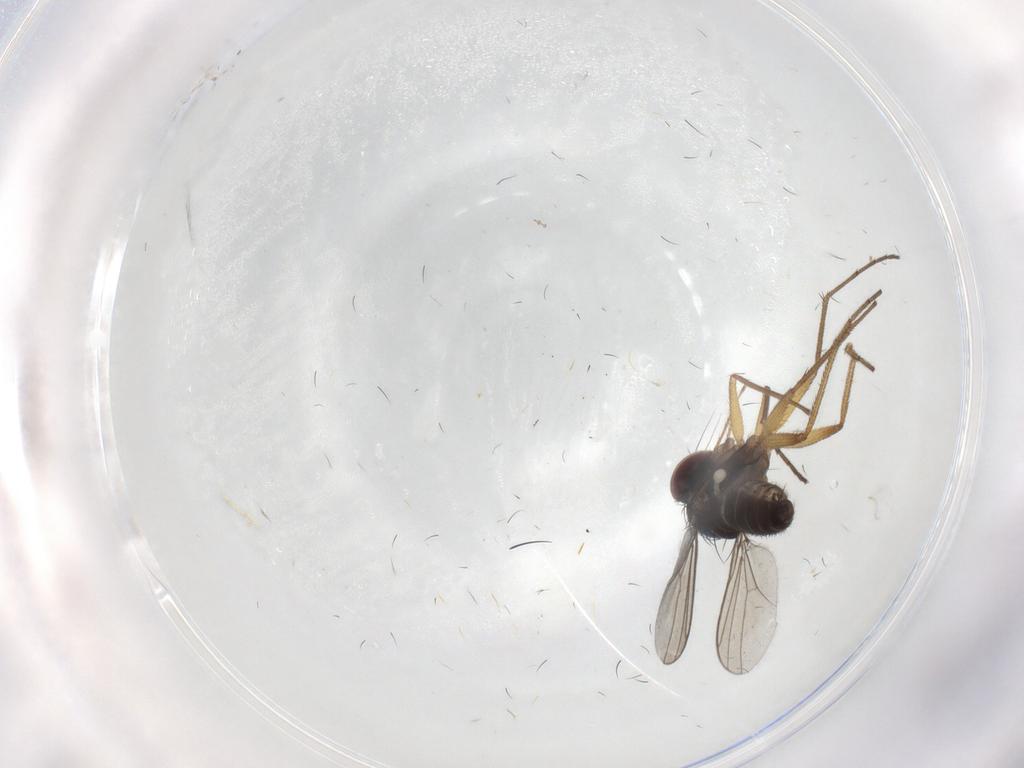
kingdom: Animalia
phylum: Arthropoda
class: Insecta
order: Diptera
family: Dolichopodidae
